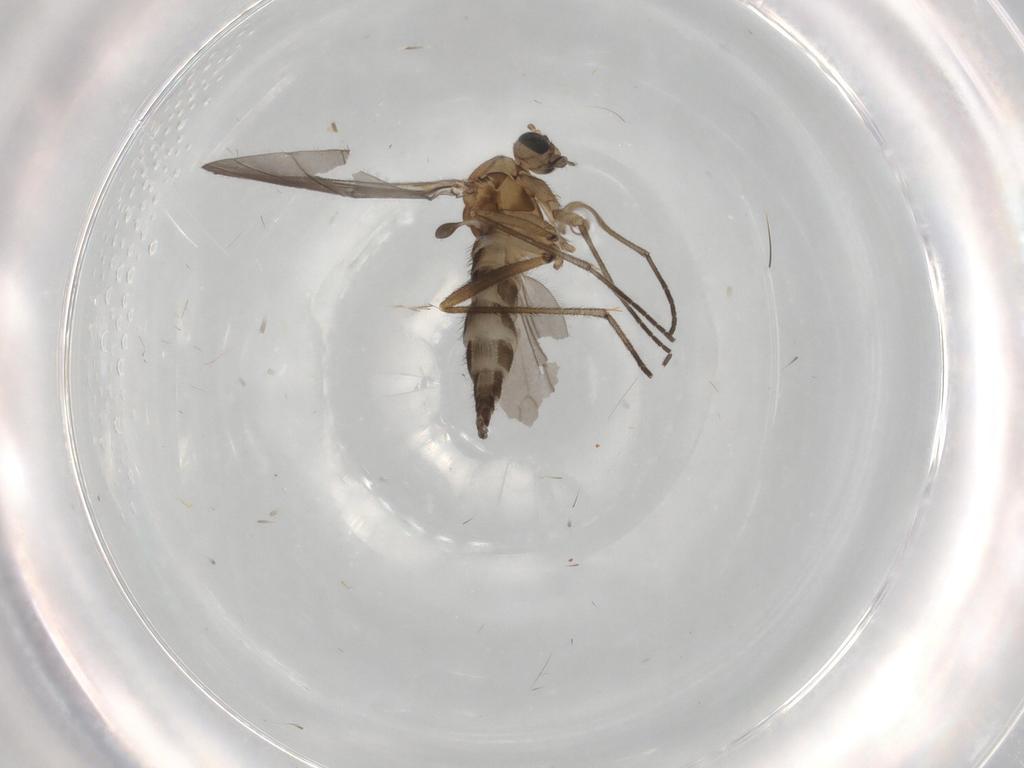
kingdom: Animalia
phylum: Arthropoda
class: Insecta
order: Diptera
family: Sciaridae
